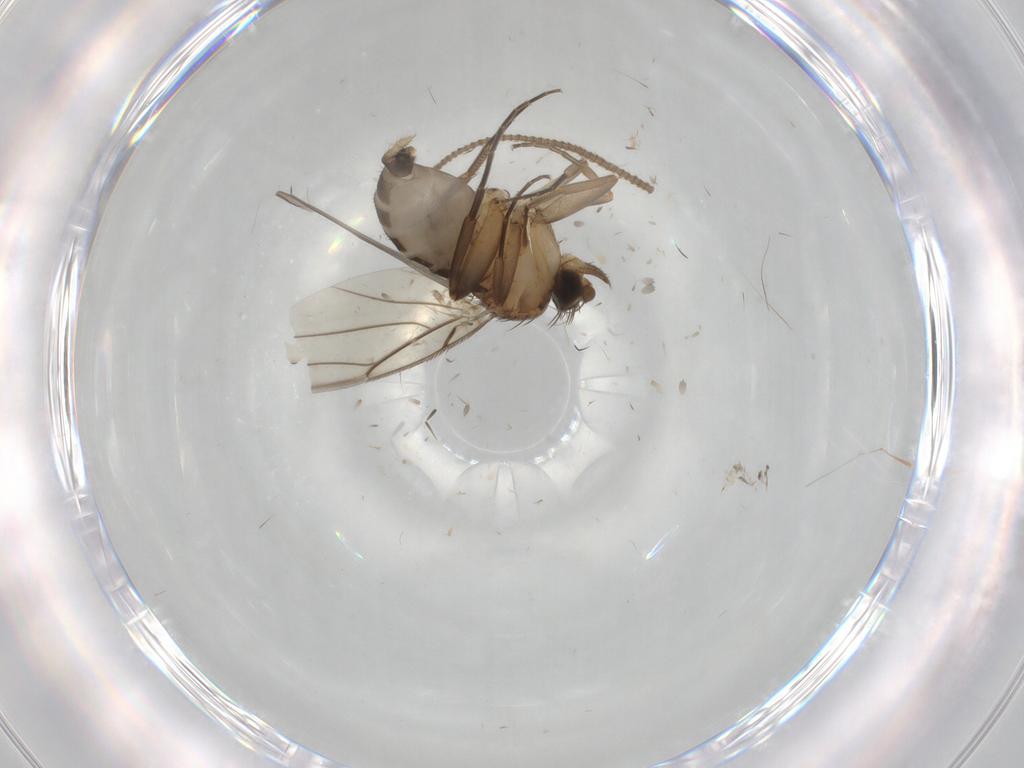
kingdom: Animalia
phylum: Arthropoda
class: Insecta
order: Diptera
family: Phoridae
